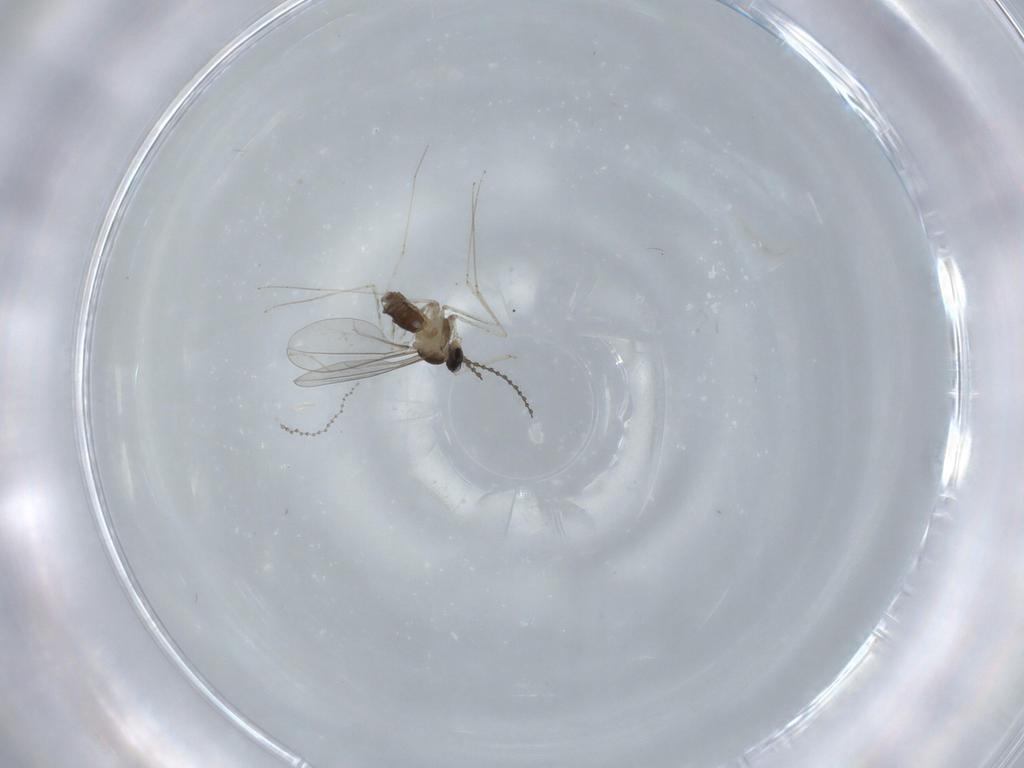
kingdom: Animalia
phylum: Arthropoda
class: Insecta
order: Diptera
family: Cecidomyiidae
